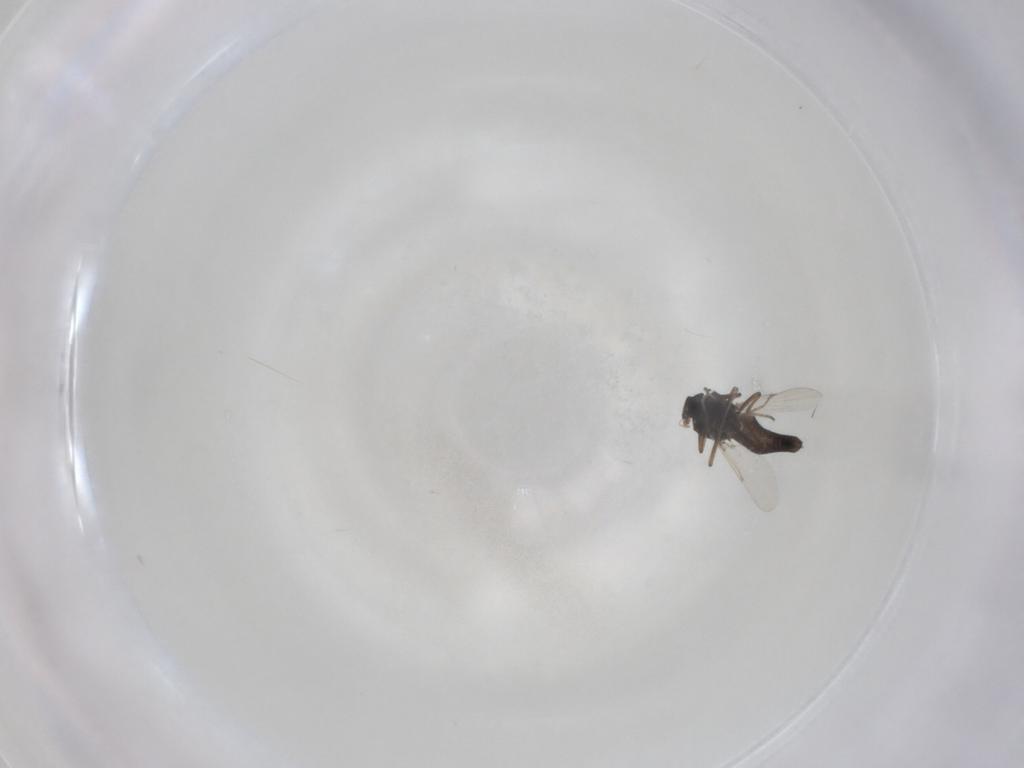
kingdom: Animalia
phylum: Arthropoda
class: Insecta
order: Diptera
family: Ceratopogonidae
